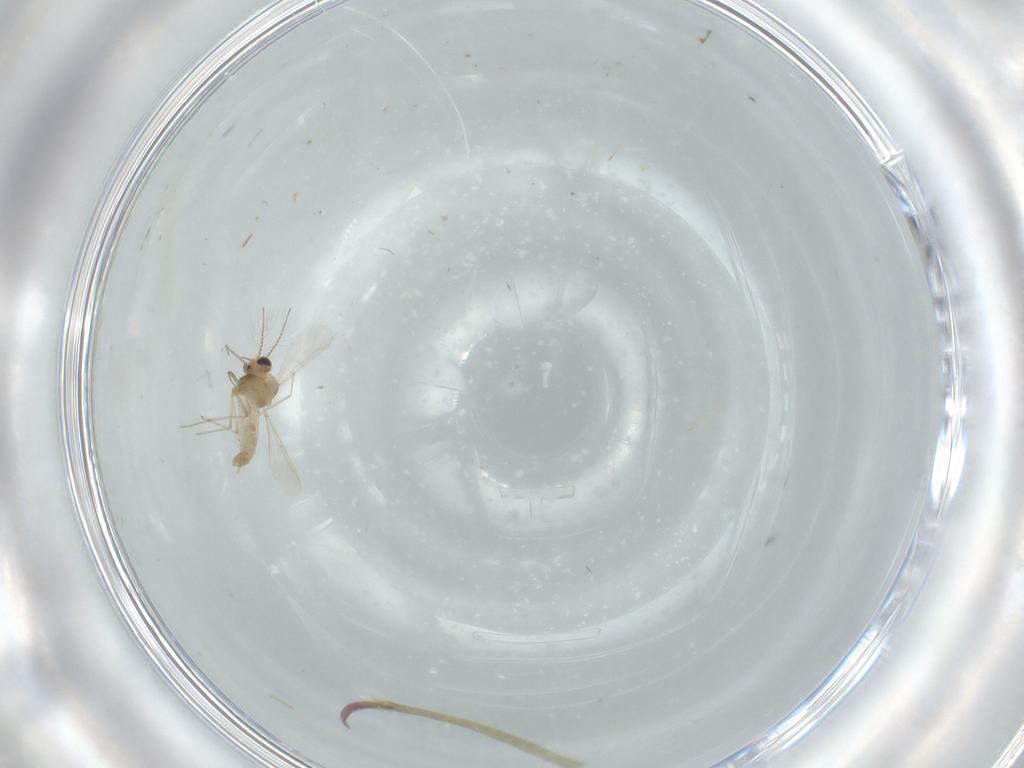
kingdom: Animalia
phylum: Arthropoda
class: Insecta
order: Diptera
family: Chironomidae
